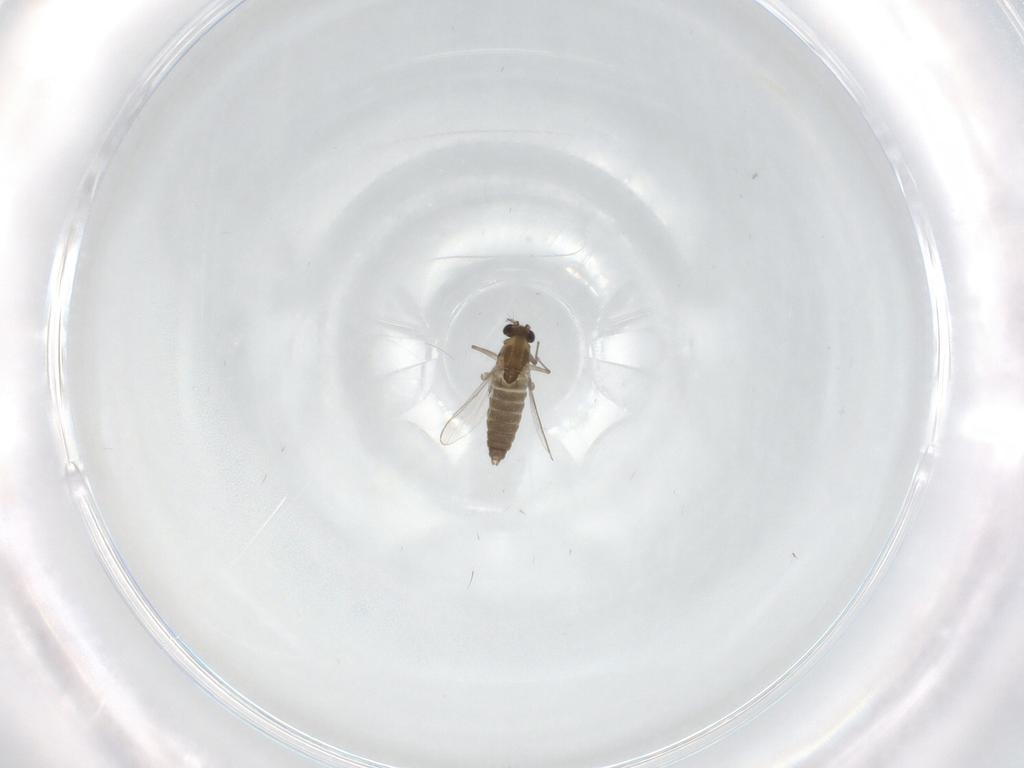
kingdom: Animalia
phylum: Arthropoda
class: Insecta
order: Diptera
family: Chironomidae
